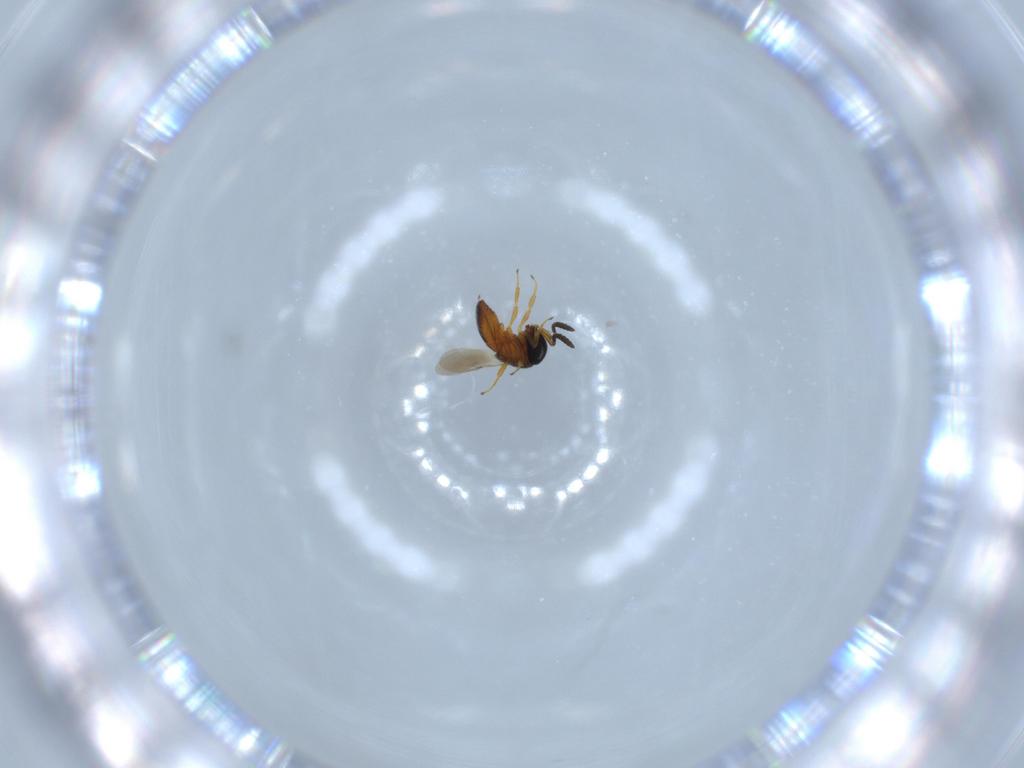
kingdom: Animalia
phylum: Arthropoda
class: Insecta
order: Hymenoptera
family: Scelionidae
